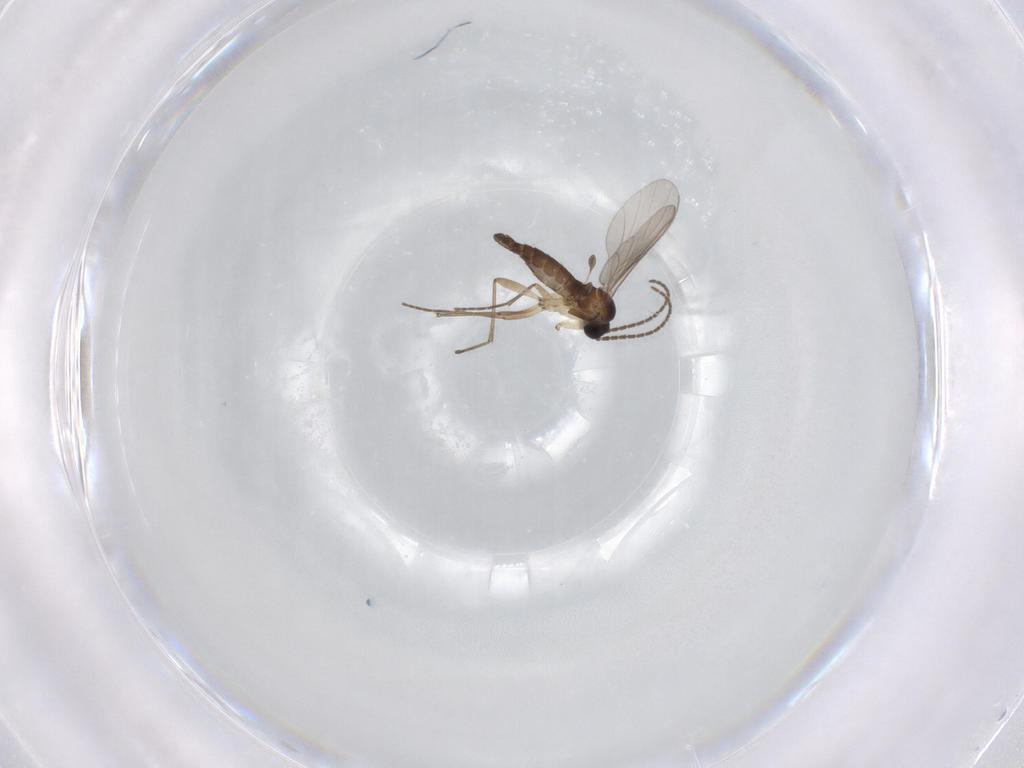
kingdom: Animalia
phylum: Arthropoda
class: Insecta
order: Diptera
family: Sciaridae
